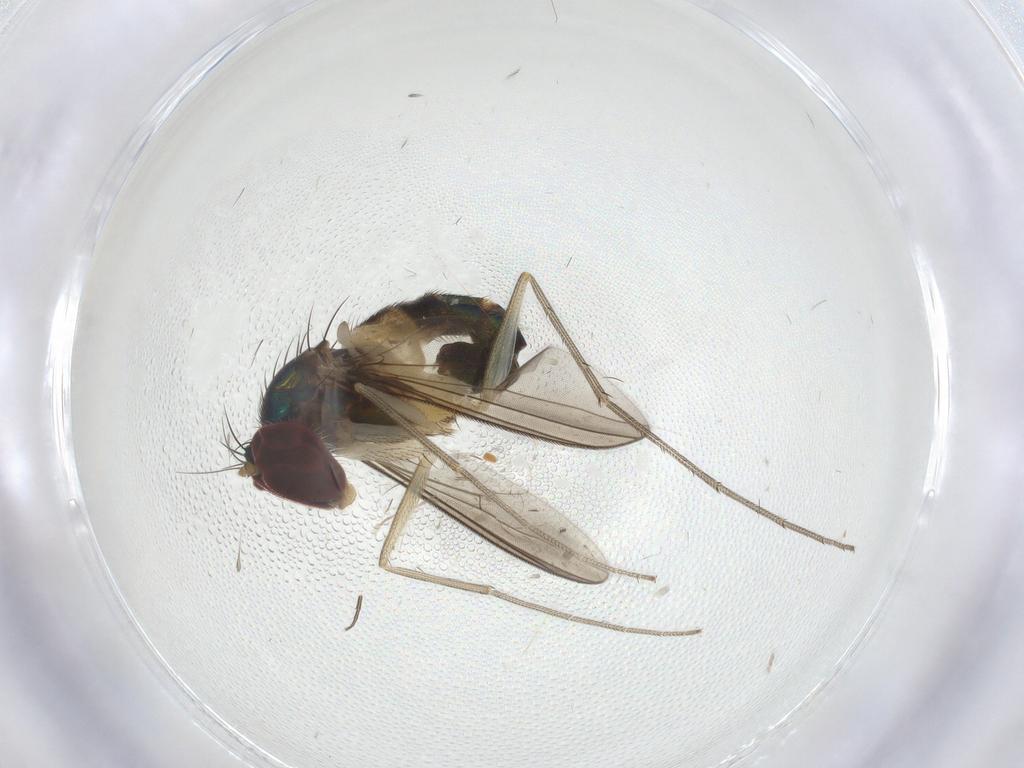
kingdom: Animalia
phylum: Arthropoda
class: Insecta
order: Diptera
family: Dolichopodidae
